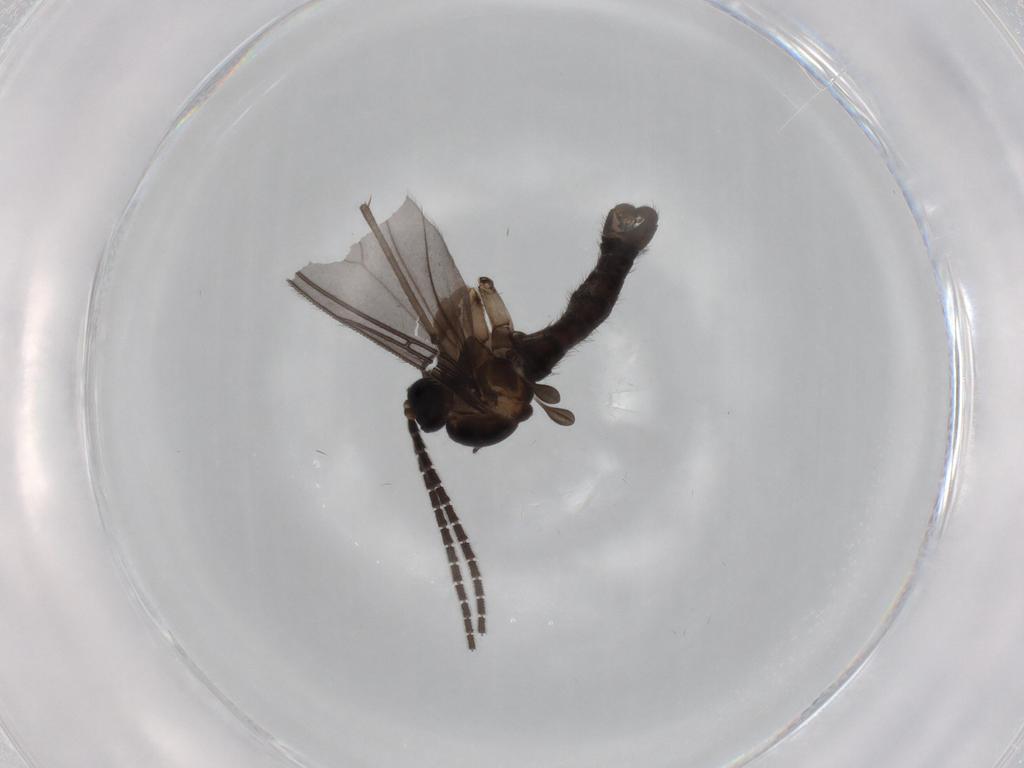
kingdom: Animalia
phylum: Arthropoda
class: Insecta
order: Diptera
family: Sciaridae
